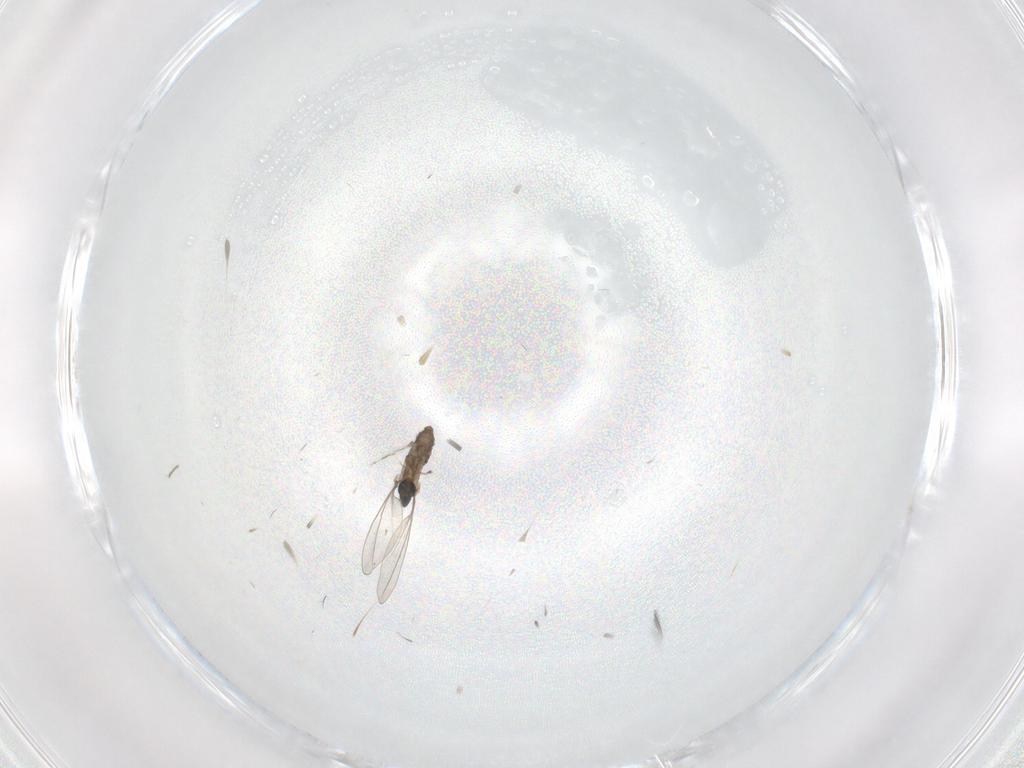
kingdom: Animalia
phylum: Arthropoda
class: Insecta
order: Diptera
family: Cecidomyiidae
